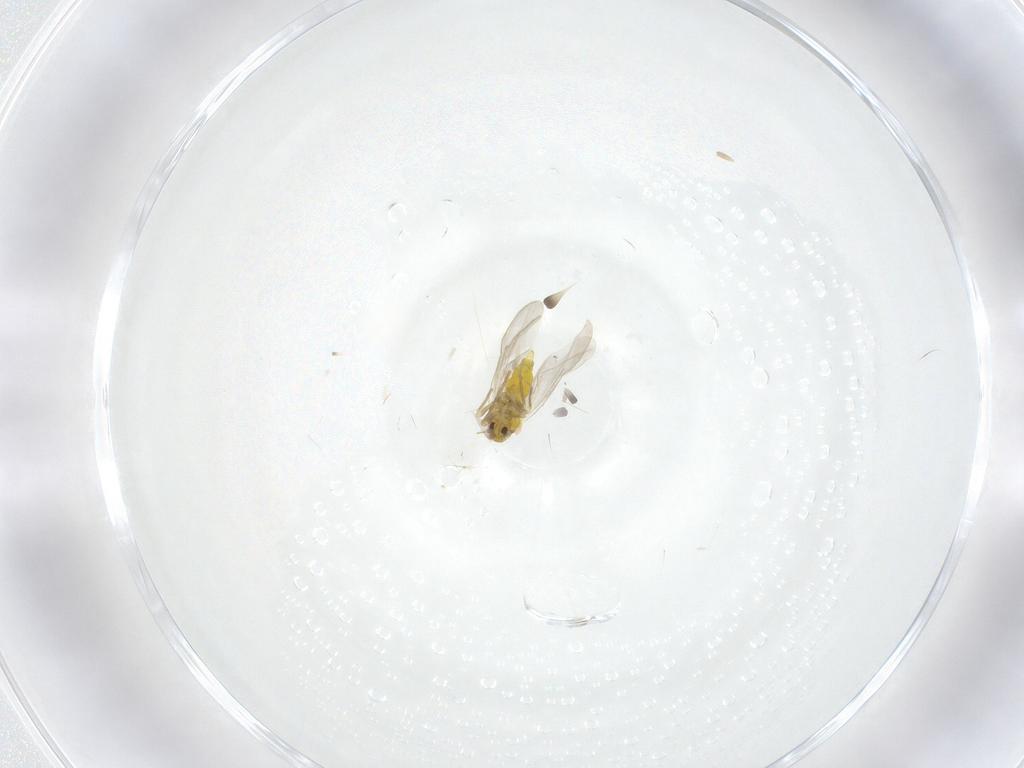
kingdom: Animalia
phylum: Arthropoda
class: Insecta
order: Hemiptera
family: Aleyrodidae
